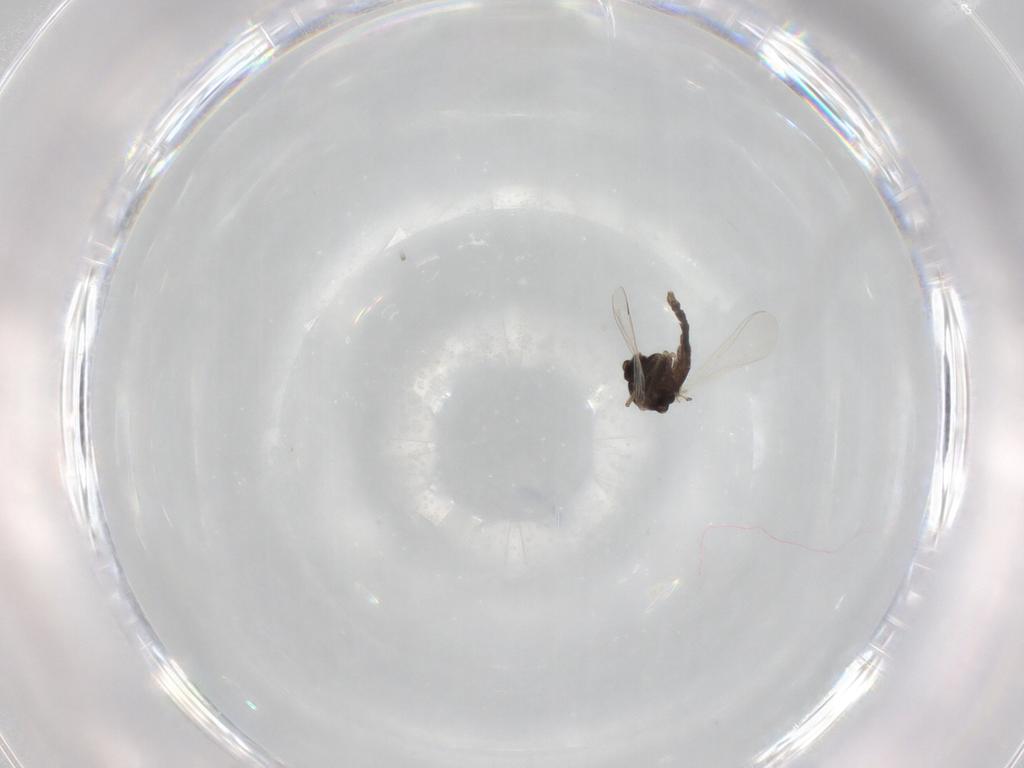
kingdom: Animalia
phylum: Arthropoda
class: Insecta
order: Diptera
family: Chironomidae
